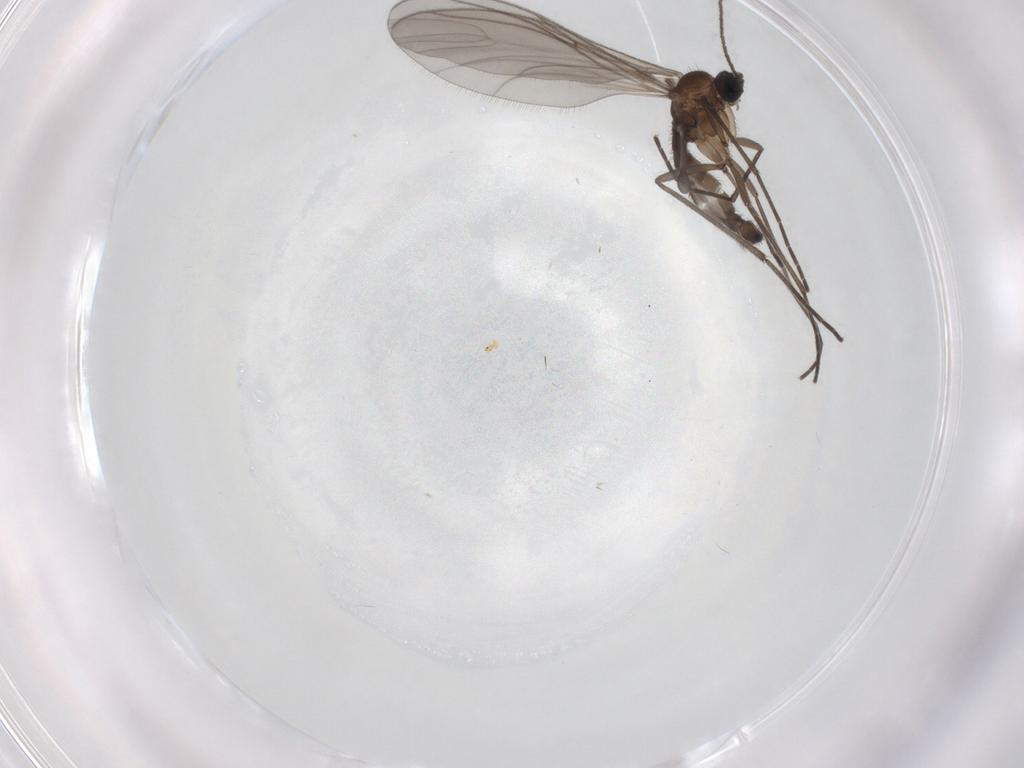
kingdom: Animalia
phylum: Arthropoda
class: Insecta
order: Diptera
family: Sciaridae
